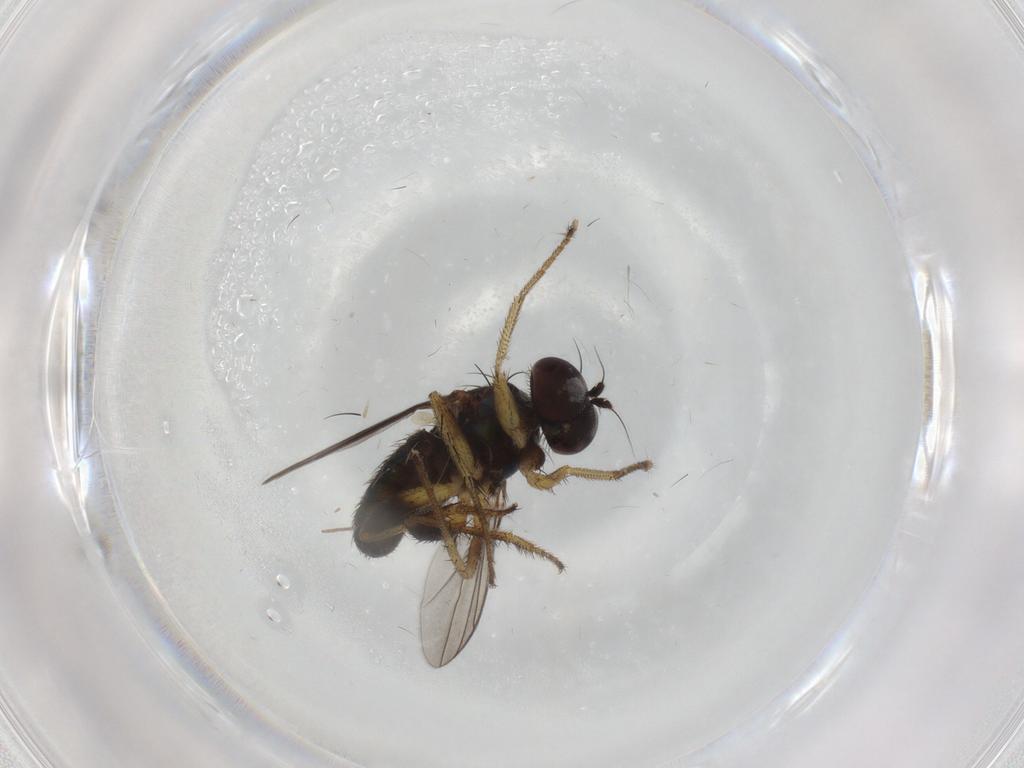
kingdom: Animalia
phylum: Arthropoda
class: Insecta
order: Diptera
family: Dolichopodidae
